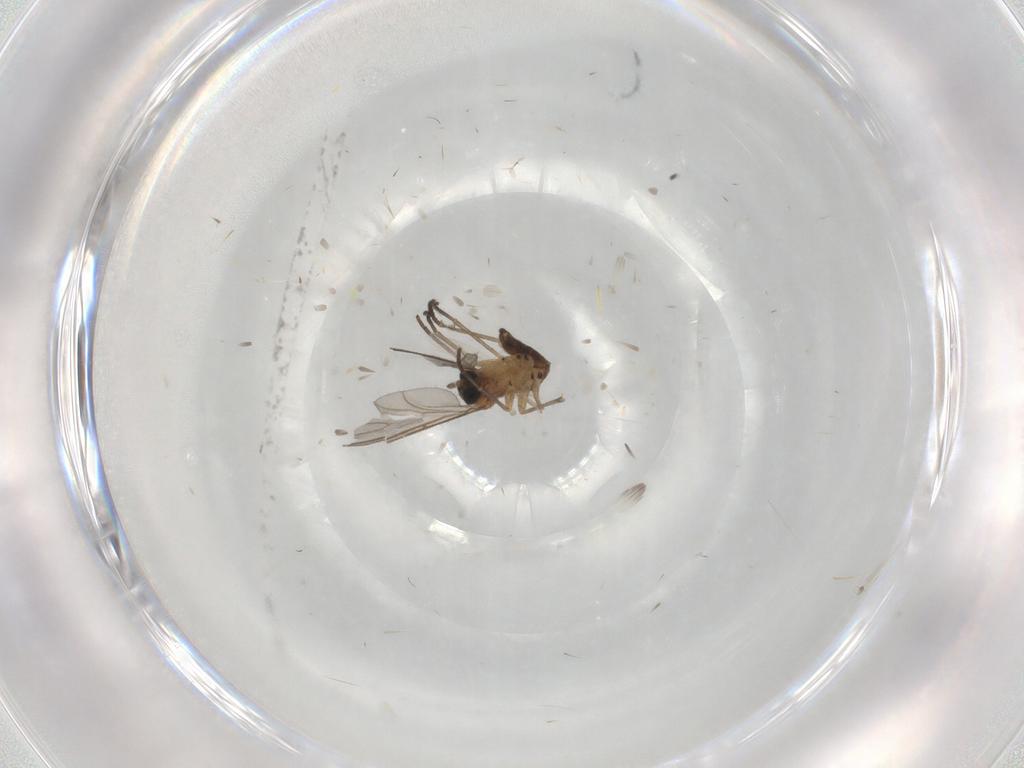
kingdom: Animalia
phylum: Arthropoda
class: Insecta
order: Diptera
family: Sciaridae
